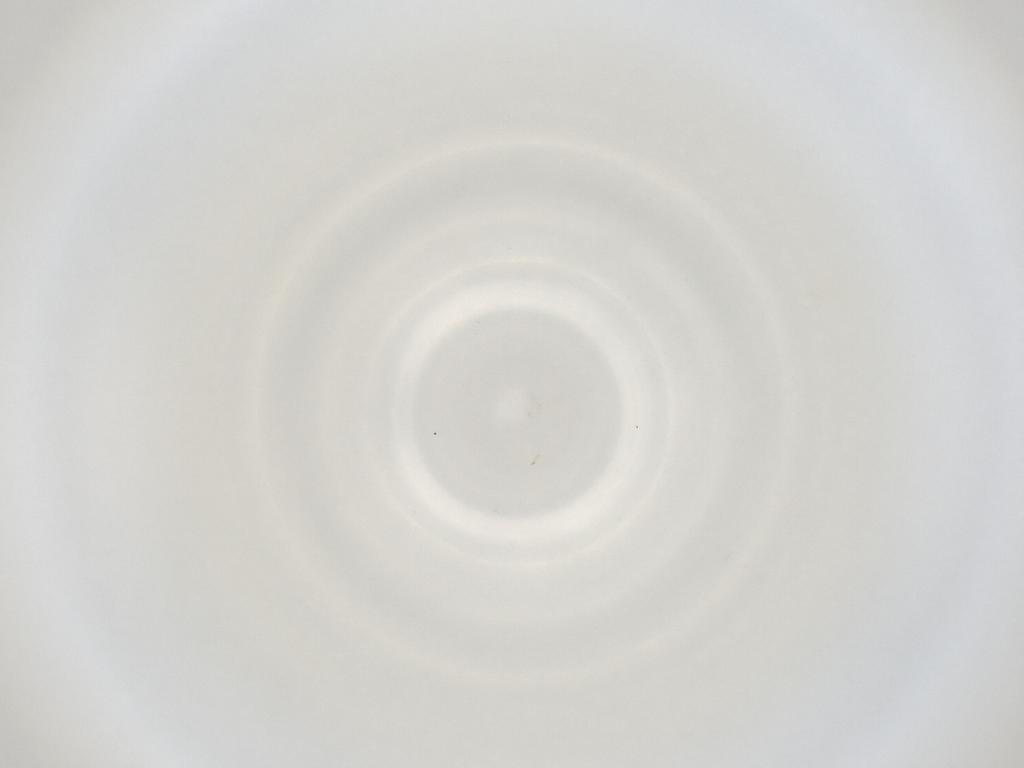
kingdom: Animalia
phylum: Arthropoda
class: Insecta
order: Diptera
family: Cecidomyiidae
